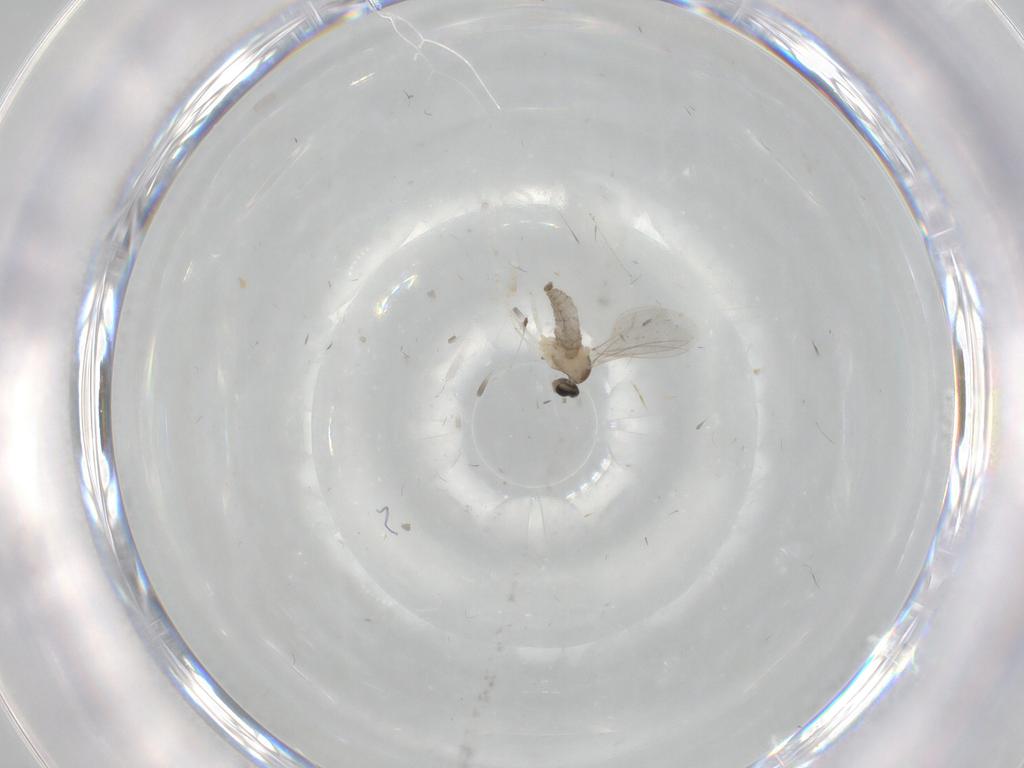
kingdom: Animalia
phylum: Arthropoda
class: Insecta
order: Diptera
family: Cecidomyiidae
